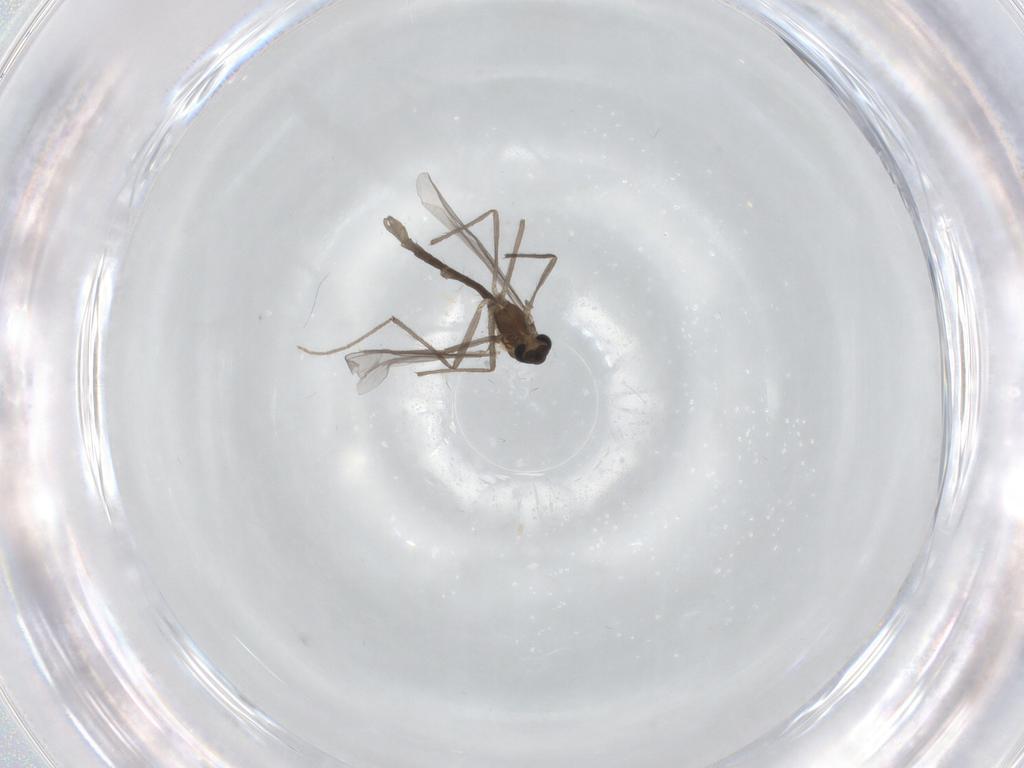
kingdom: Animalia
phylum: Arthropoda
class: Insecta
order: Diptera
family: Chironomidae
